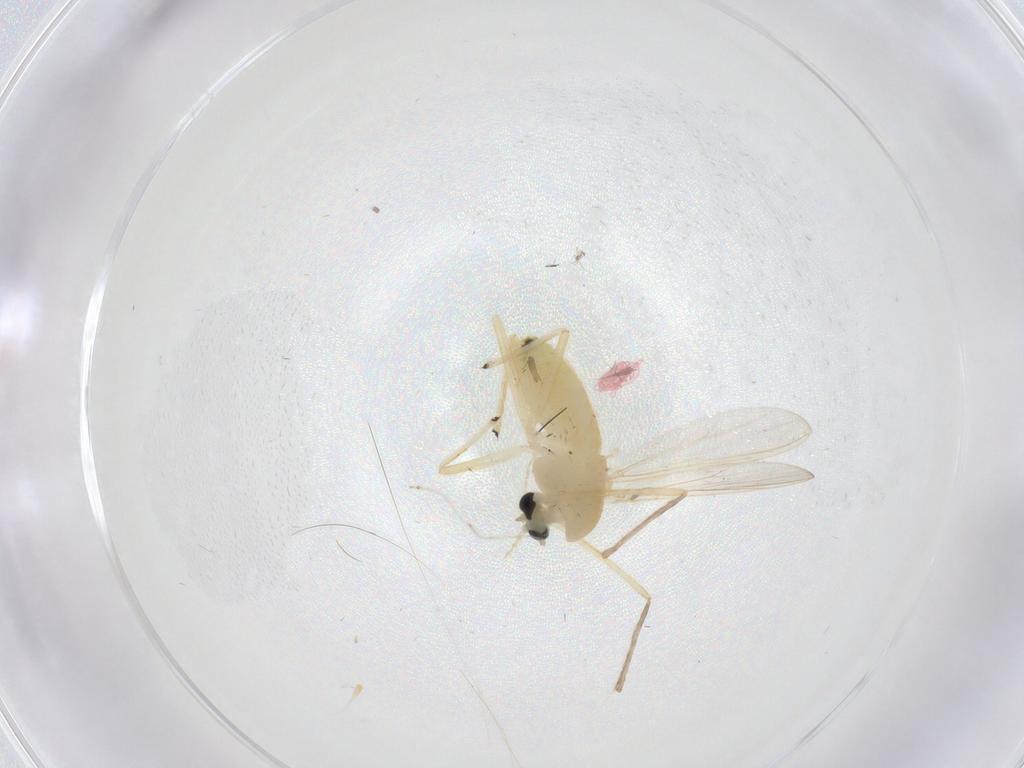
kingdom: Animalia
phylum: Arthropoda
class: Insecta
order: Diptera
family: Chironomidae
